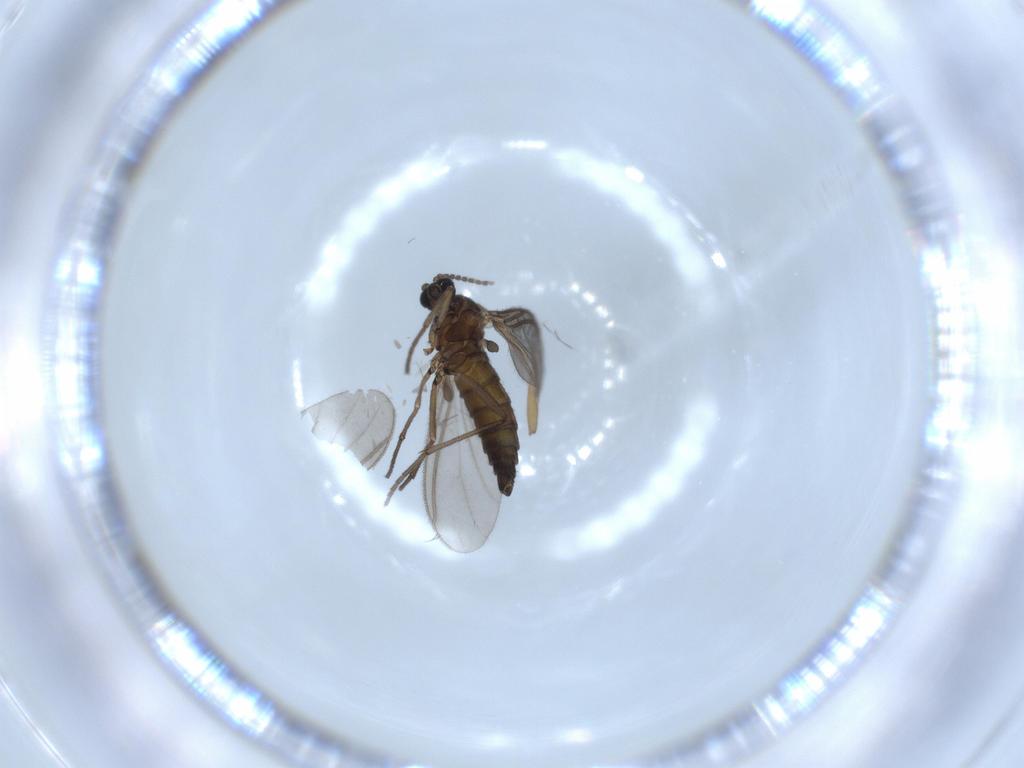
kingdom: Animalia
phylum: Arthropoda
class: Insecta
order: Diptera
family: Sciaridae
